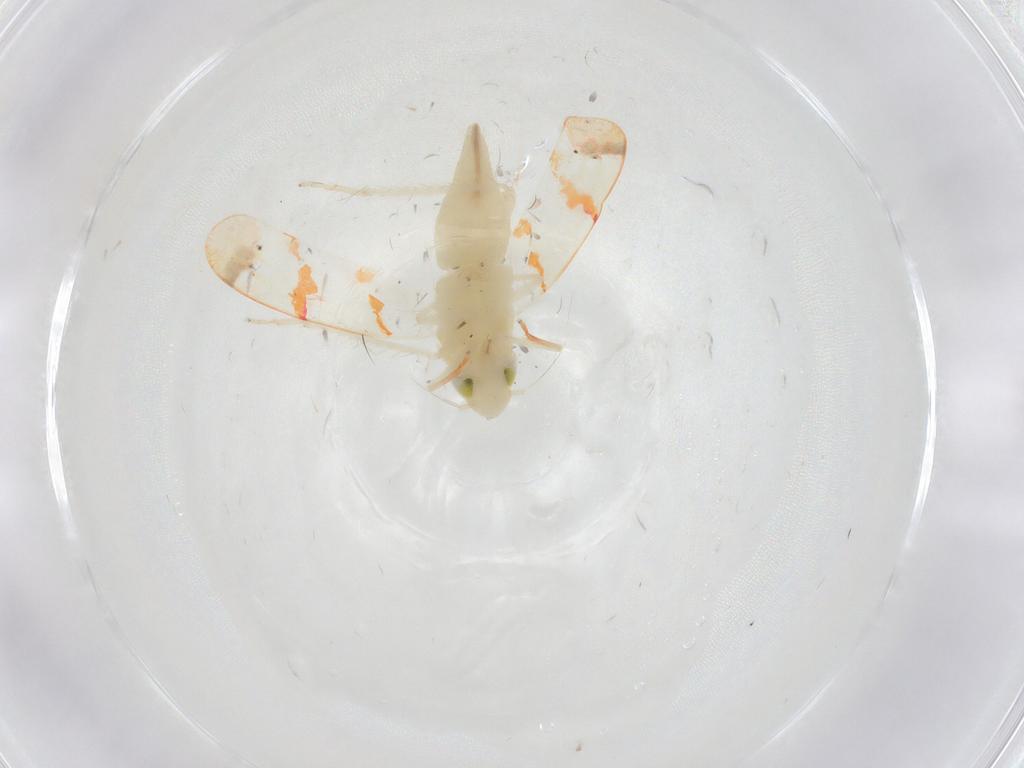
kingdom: Animalia
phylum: Arthropoda
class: Insecta
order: Hemiptera
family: Cicadellidae
